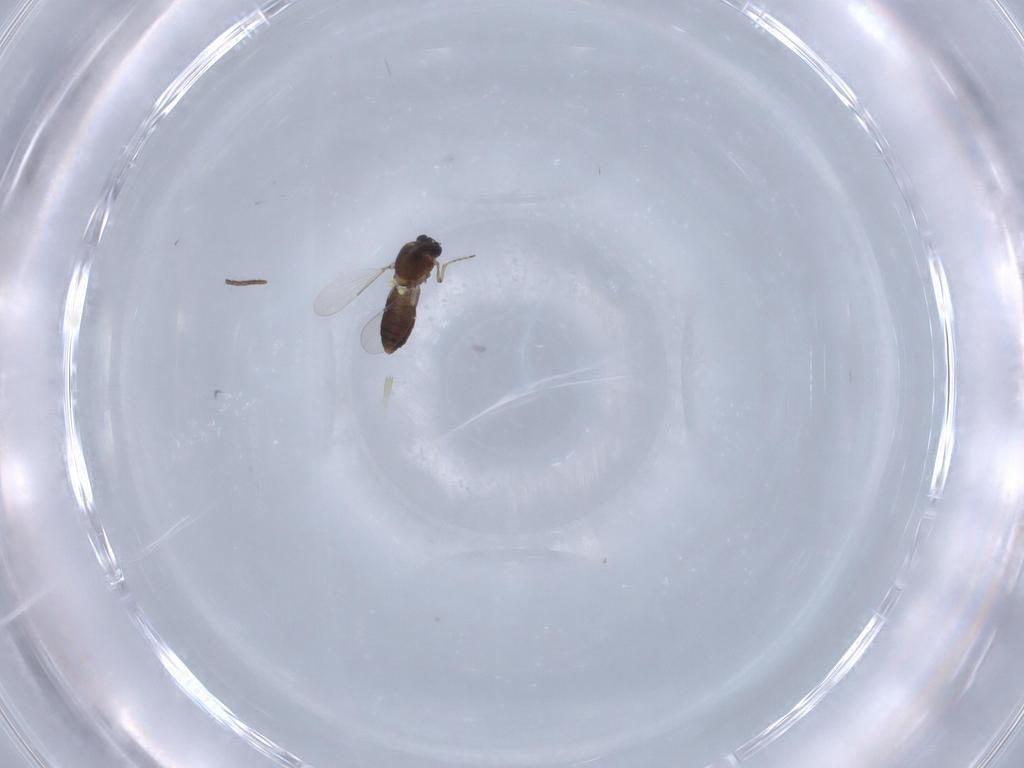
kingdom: Animalia
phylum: Arthropoda
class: Insecta
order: Diptera
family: Ceratopogonidae
